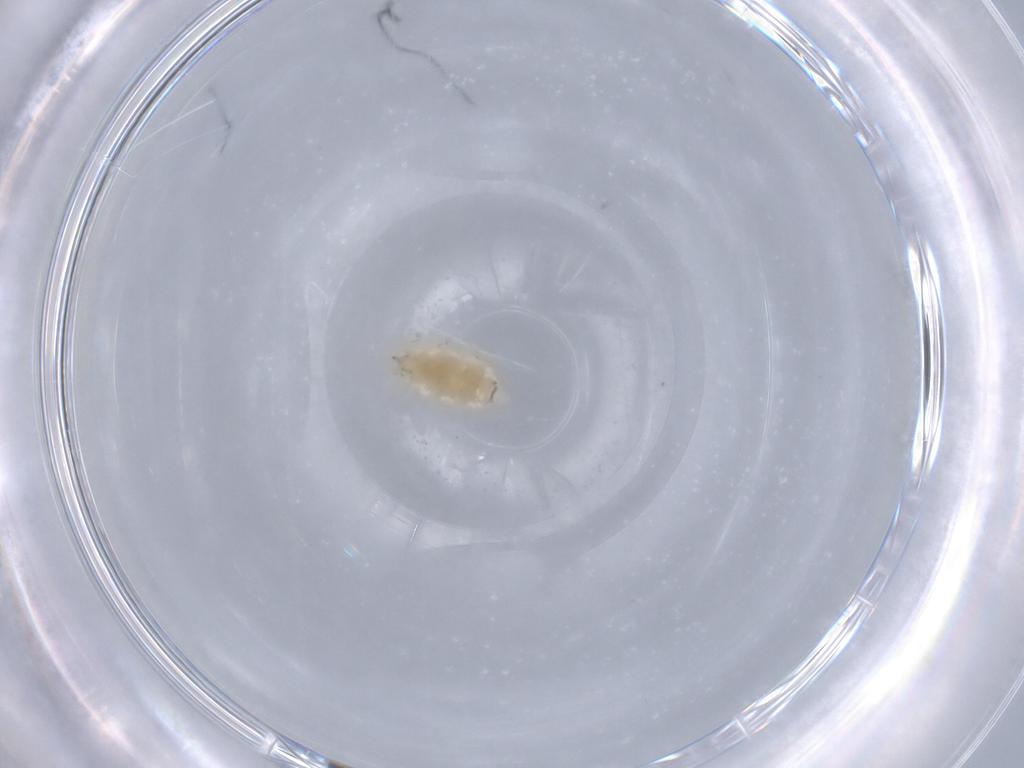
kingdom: Animalia
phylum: Arthropoda
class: Insecta
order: Neuroptera
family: Coniopterygidae
